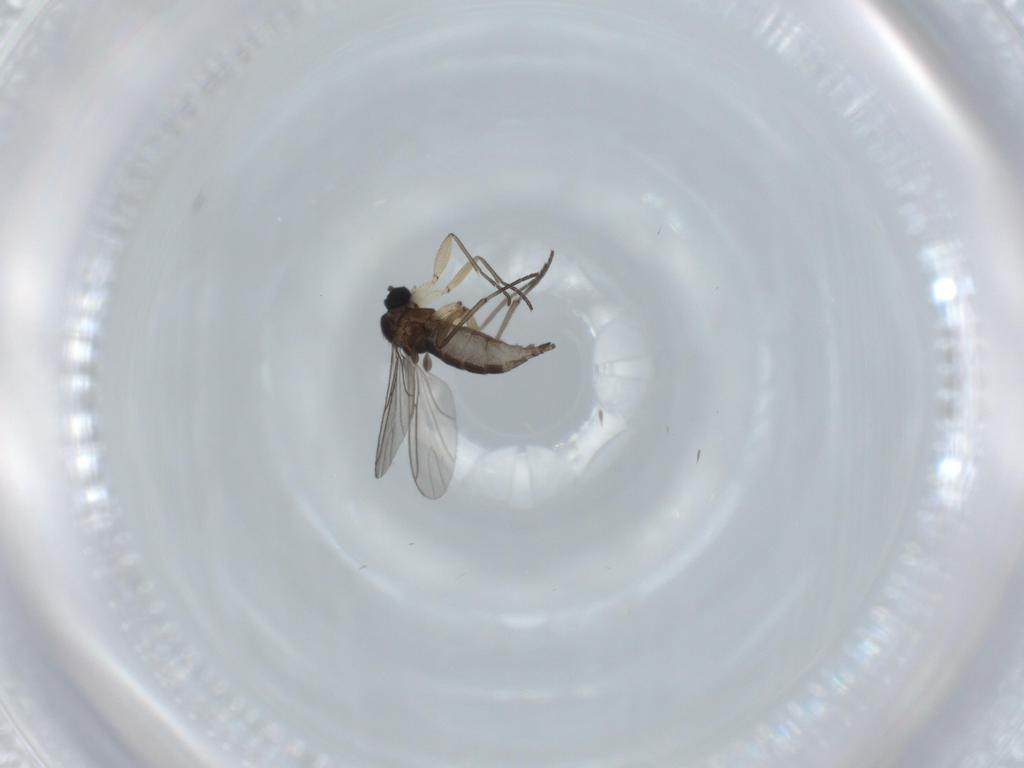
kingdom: Animalia
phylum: Arthropoda
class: Insecta
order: Diptera
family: Sciaridae
